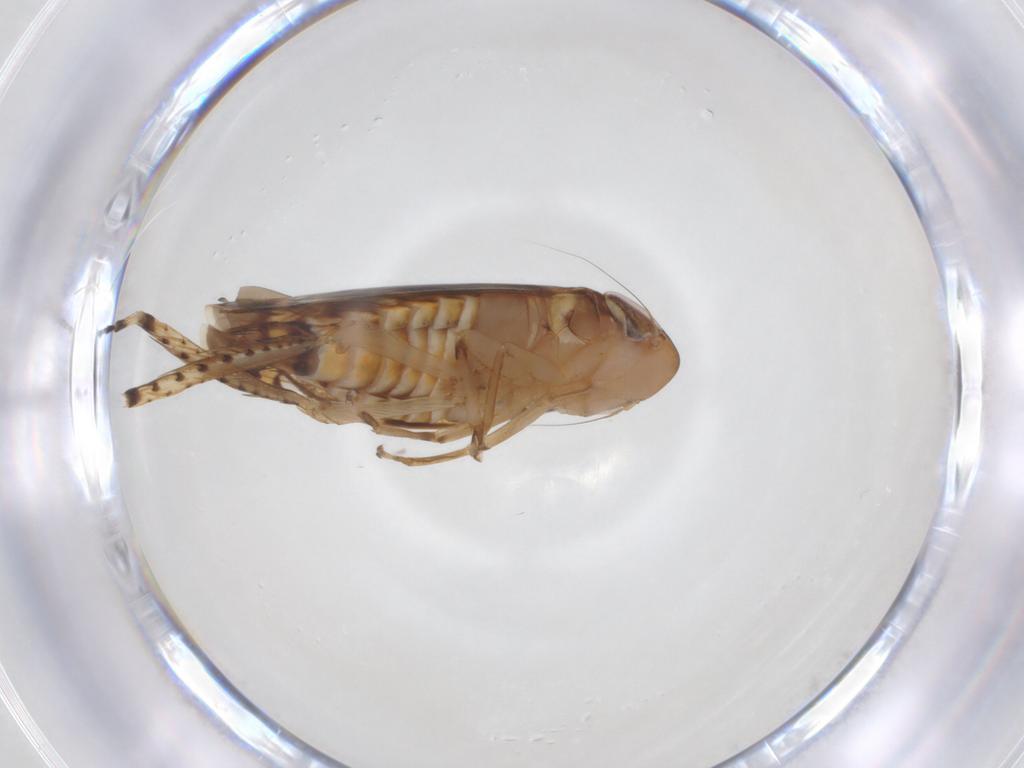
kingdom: Animalia
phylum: Arthropoda
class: Insecta
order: Hemiptera
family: Cicadellidae
